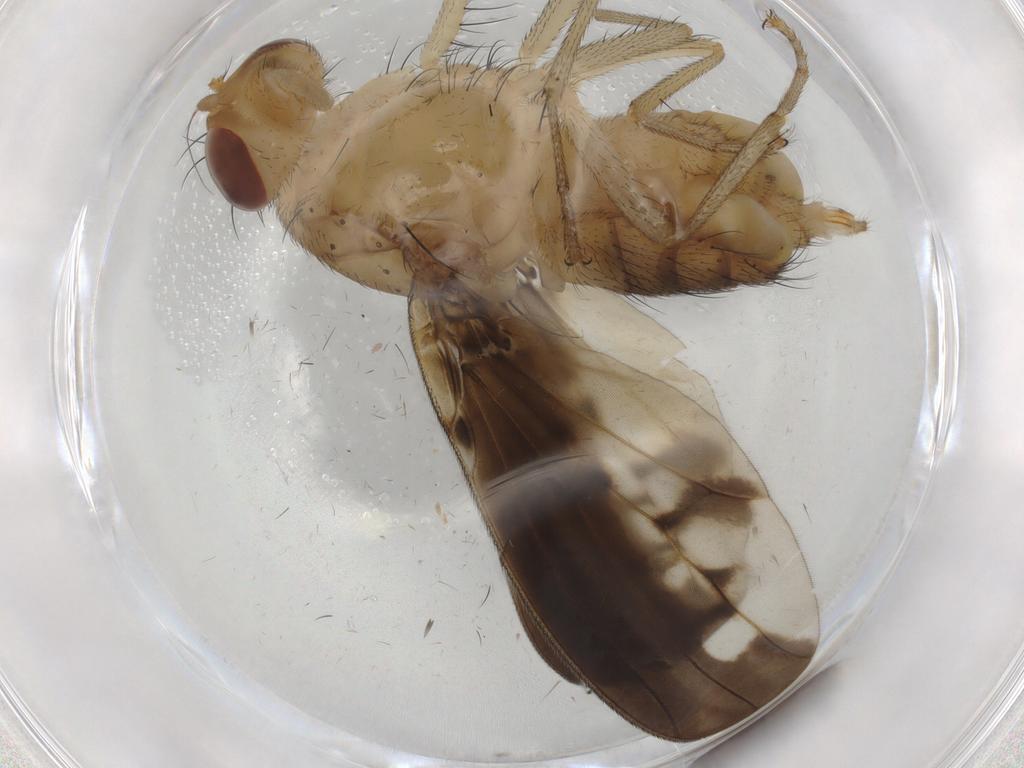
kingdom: Animalia
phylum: Arthropoda
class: Insecta
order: Diptera
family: Sciaridae
